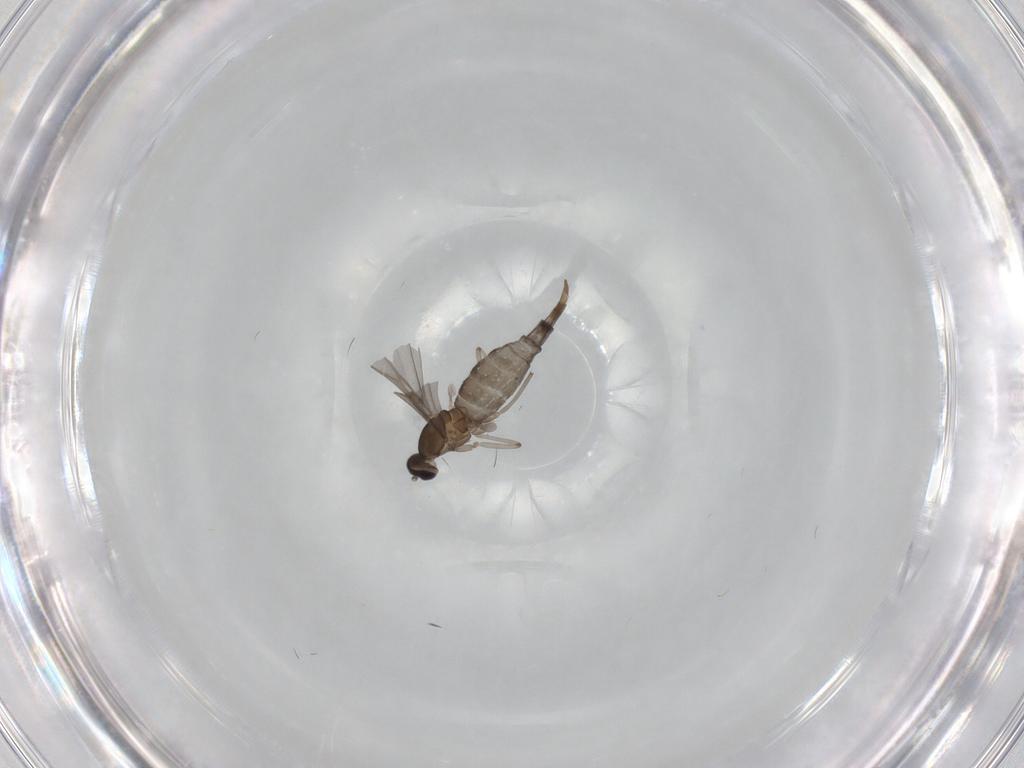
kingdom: Animalia
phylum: Arthropoda
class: Insecta
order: Diptera
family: Cecidomyiidae
